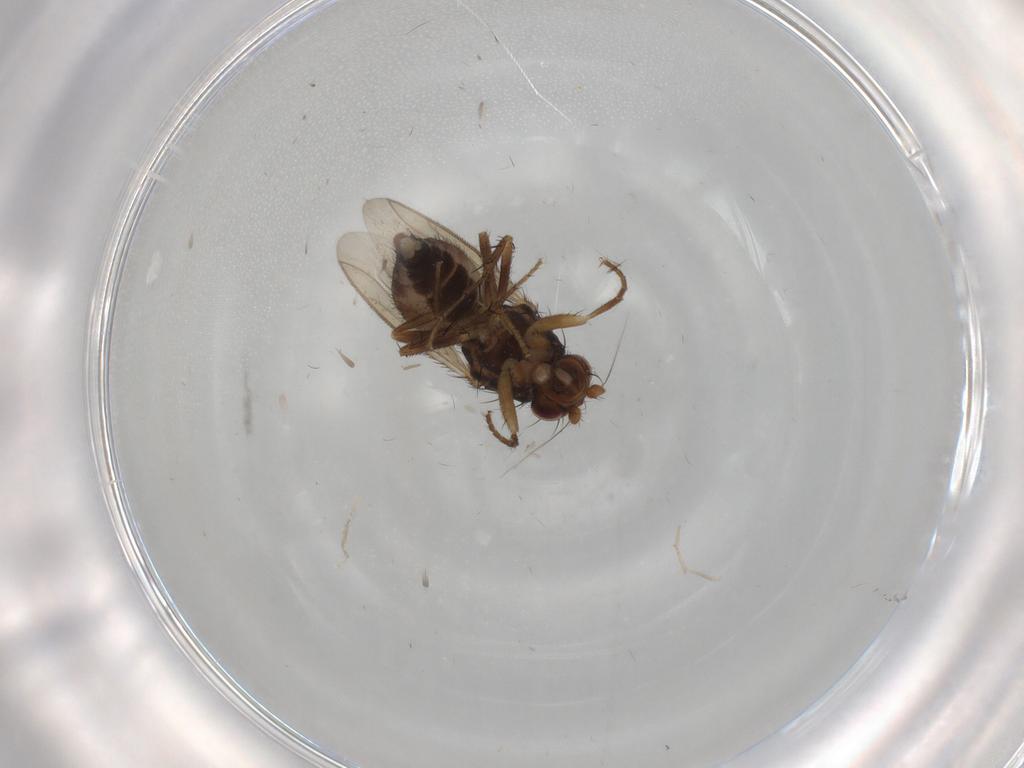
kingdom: Animalia
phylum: Arthropoda
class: Insecta
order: Diptera
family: Sphaeroceridae
